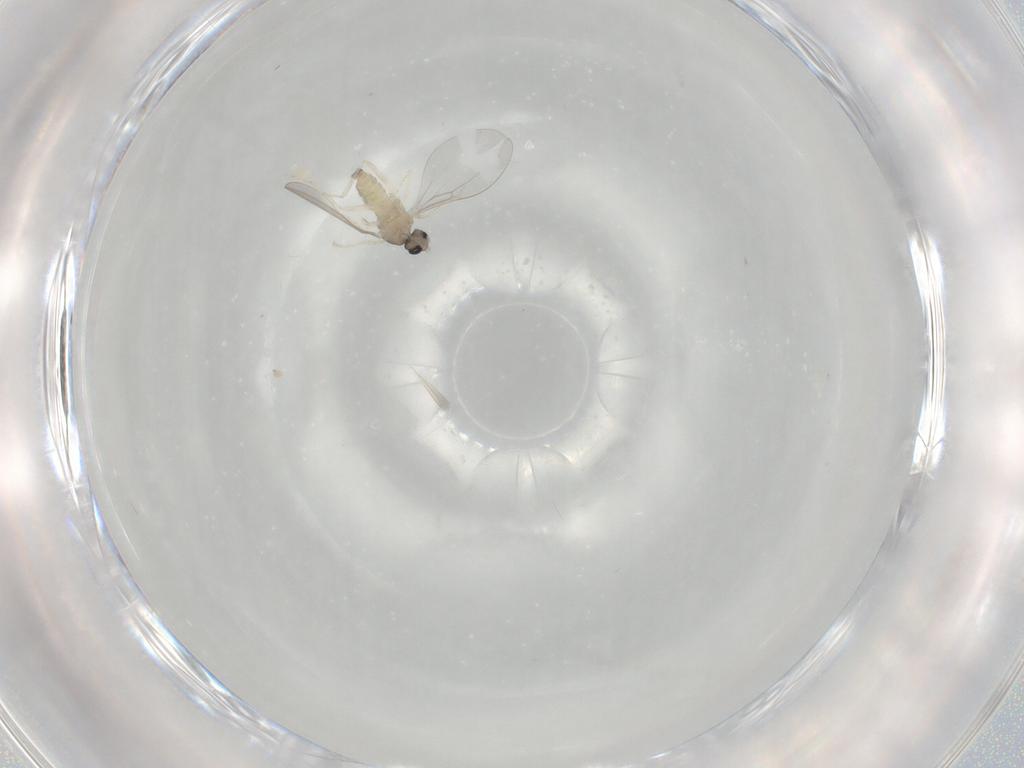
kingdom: Animalia
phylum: Arthropoda
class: Insecta
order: Diptera
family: Cecidomyiidae
